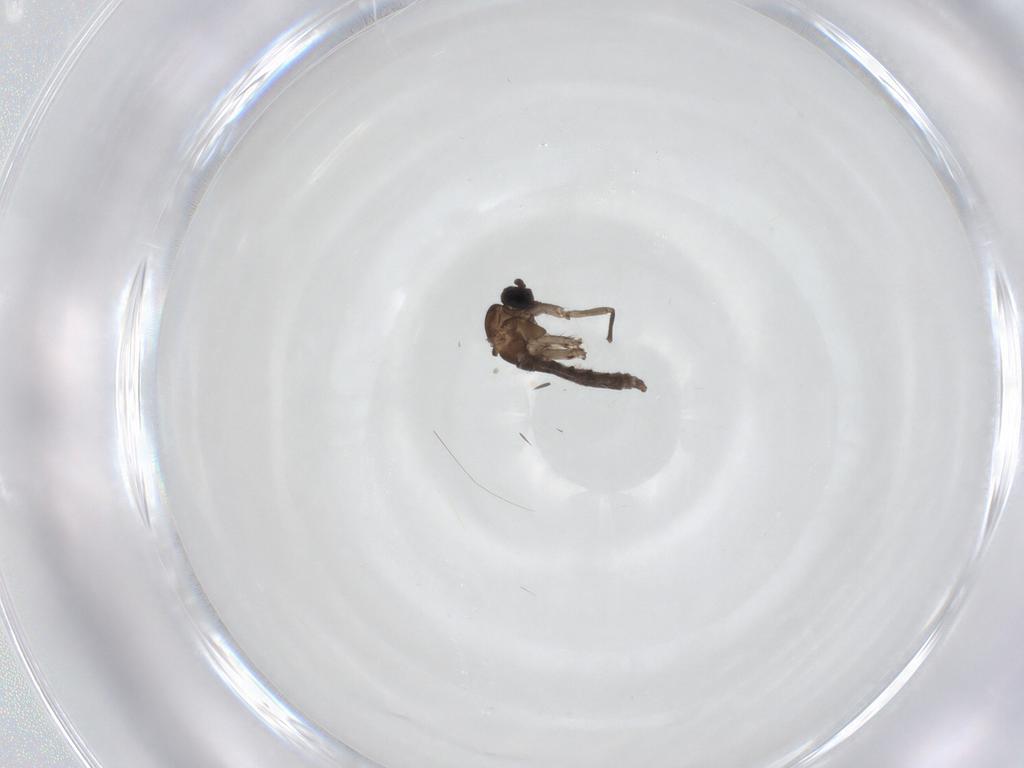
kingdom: Animalia
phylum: Arthropoda
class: Insecta
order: Diptera
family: Sciaridae
